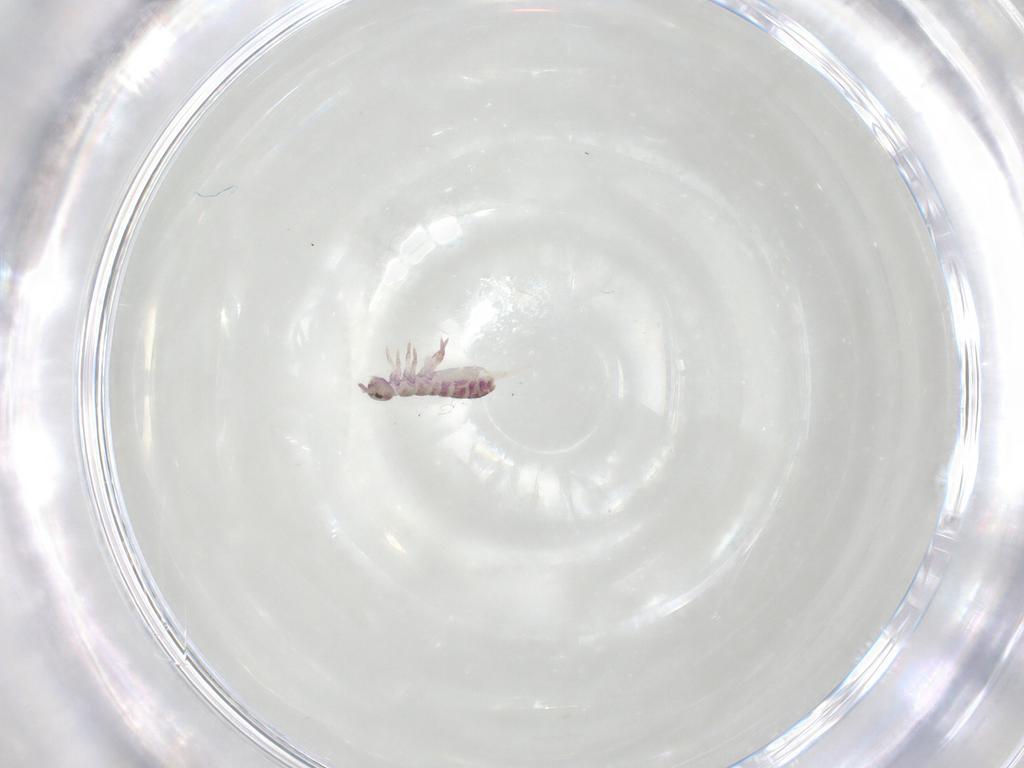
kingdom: Animalia
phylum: Arthropoda
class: Collembola
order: Entomobryomorpha
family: Isotomidae
